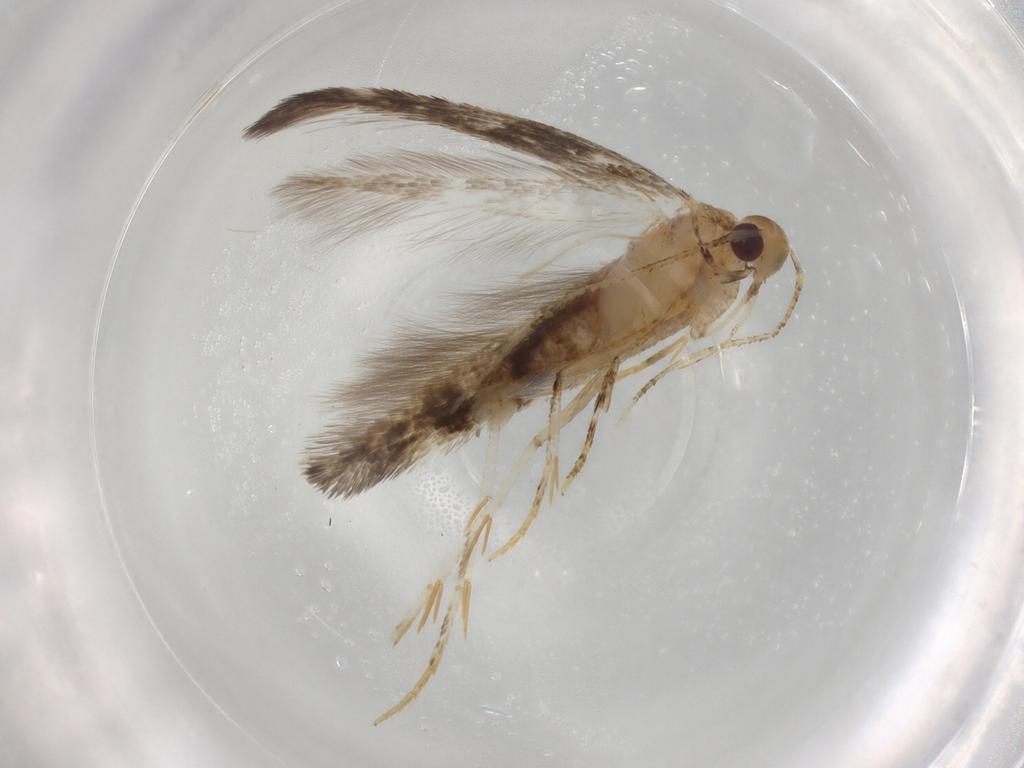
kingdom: Animalia
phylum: Arthropoda
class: Insecta
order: Lepidoptera
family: Cosmopterigidae
